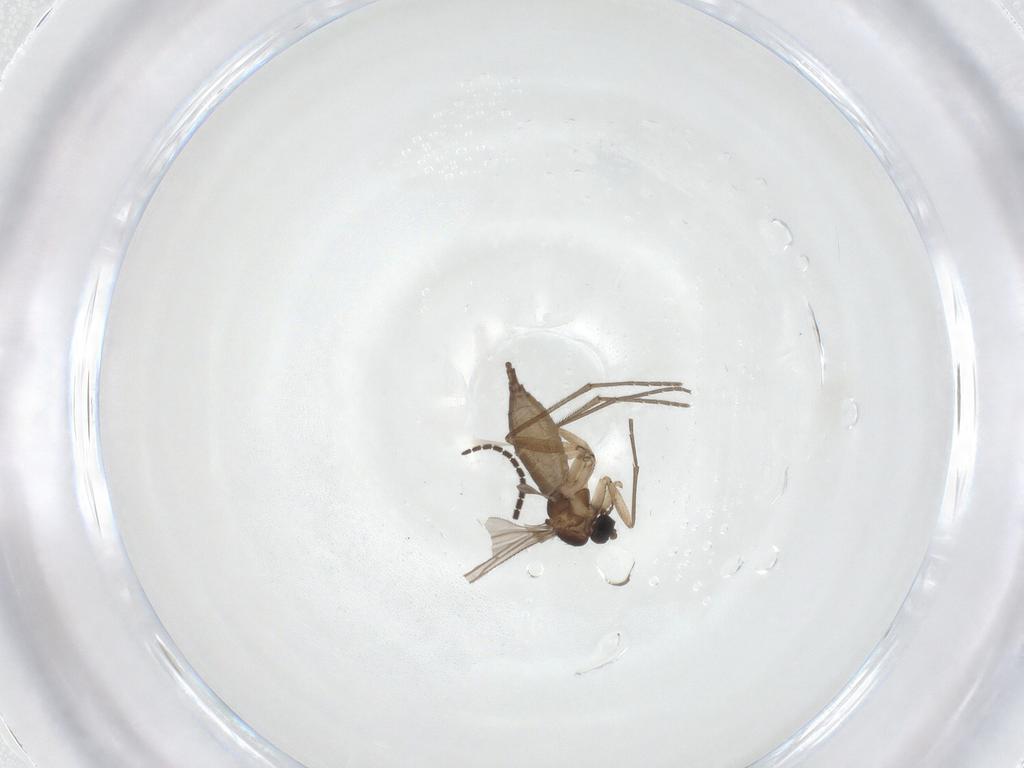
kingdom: Animalia
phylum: Arthropoda
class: Insecta
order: Diptera
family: Sciaridae
